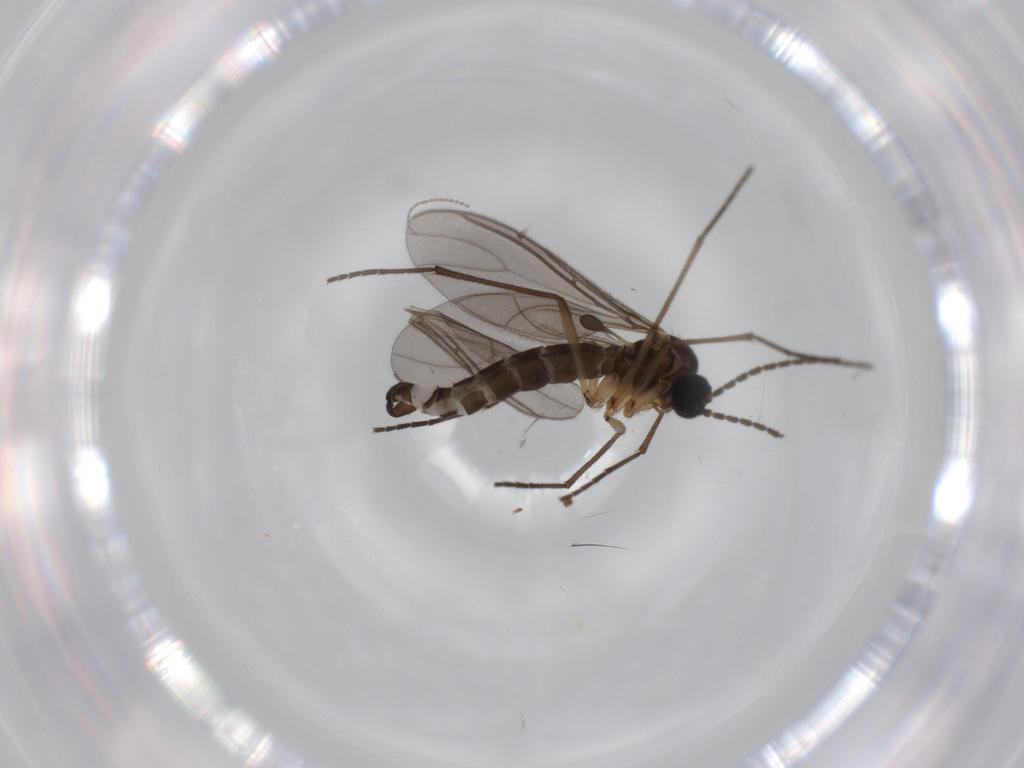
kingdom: Animalia
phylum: Arthropoda
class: Insecta
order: Diptera
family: Sciaridae
